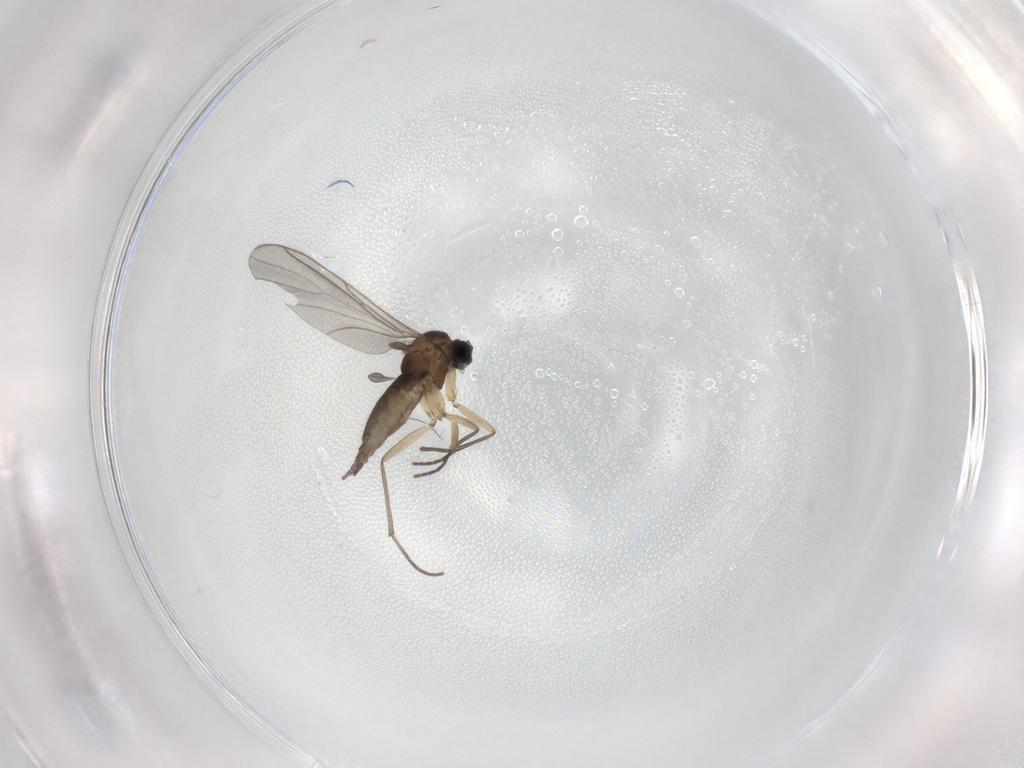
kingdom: Animalia
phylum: Arthropoda
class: Insecta
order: Diptera
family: Sciaridae
